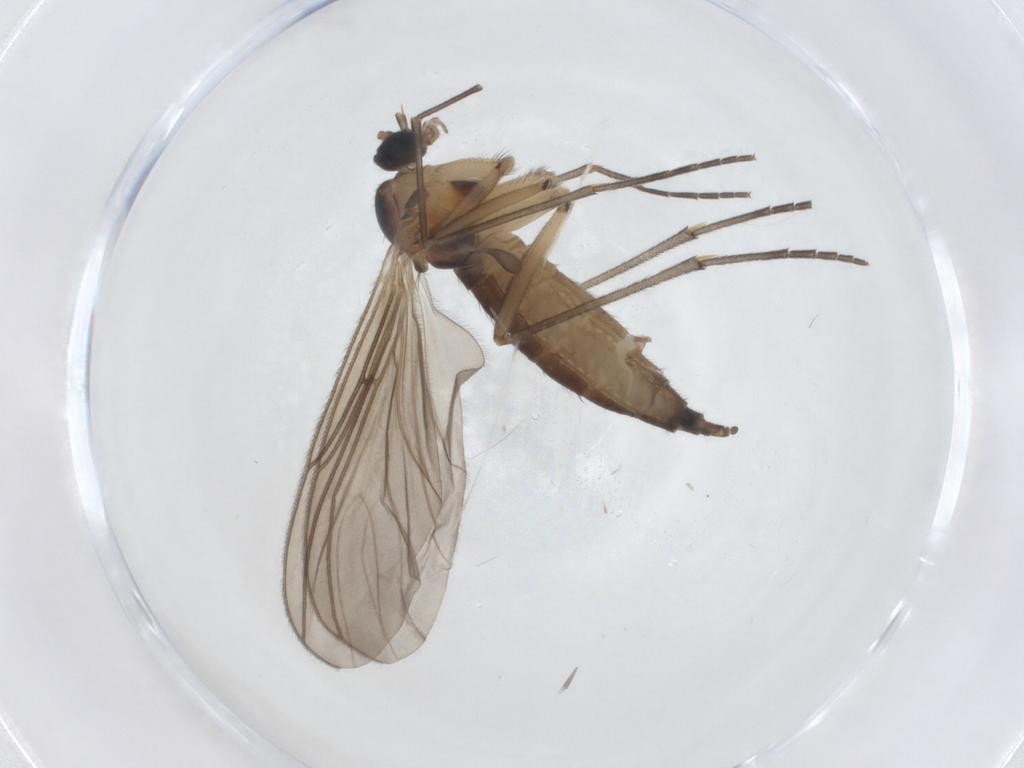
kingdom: Animalia
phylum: Arthropoda
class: Insecta
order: Diptera
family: Sciaridae
